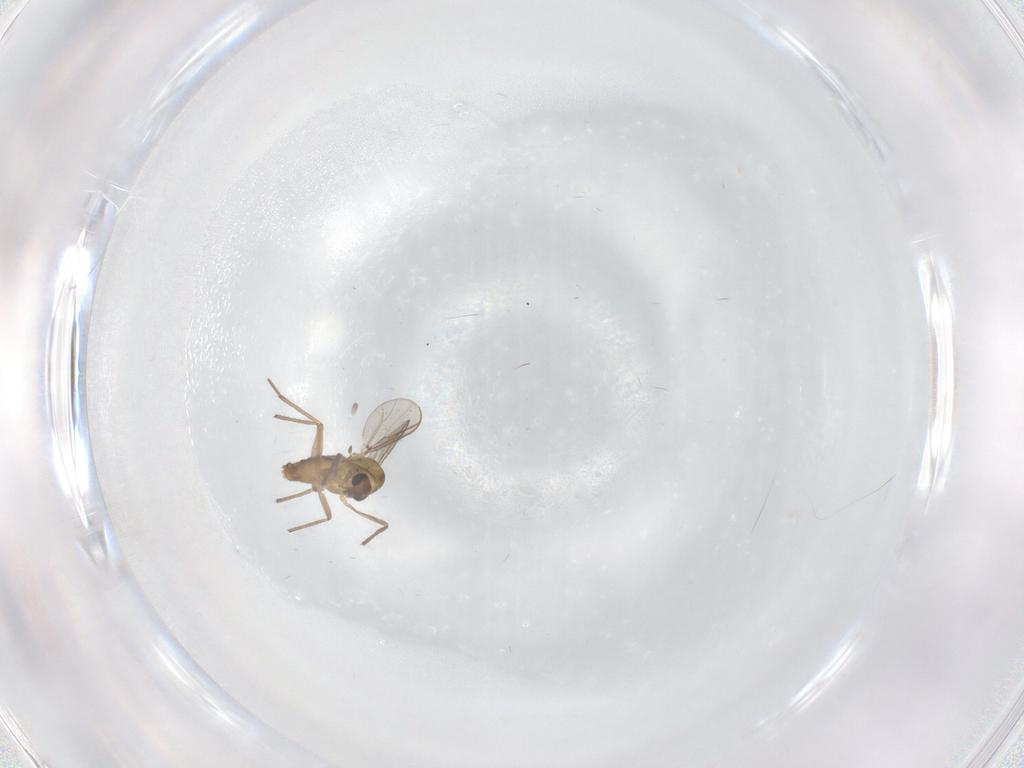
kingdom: Animalia
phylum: Arthropoda
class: Insecta
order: Diptera
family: Chironomidae
